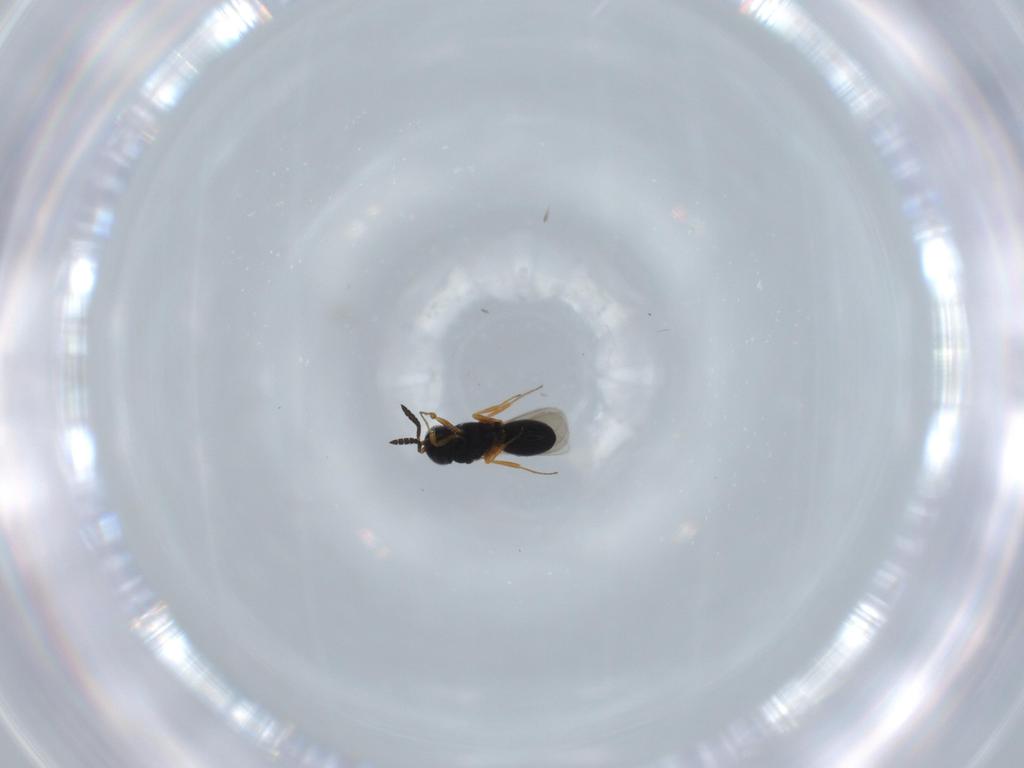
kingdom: Animalia
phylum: Arthropoda
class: Insecta
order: Hymenoptera
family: Scelionidae
